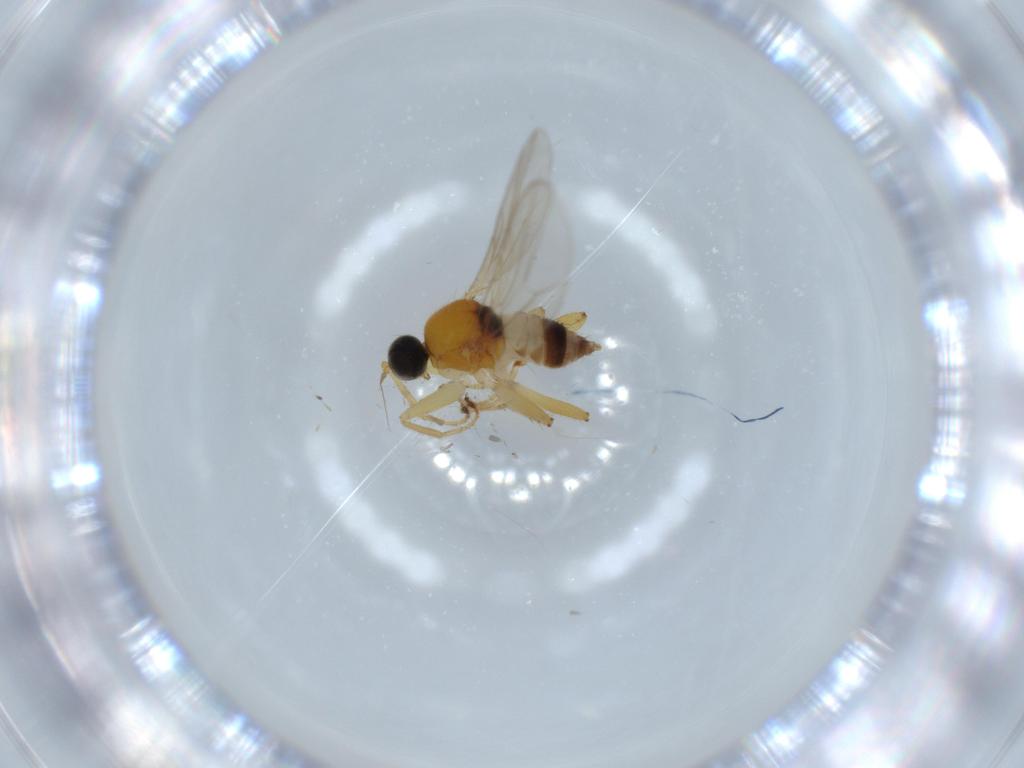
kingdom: Animalia
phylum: Arthropoda
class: Insecta
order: Diptera
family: Hybotidae
